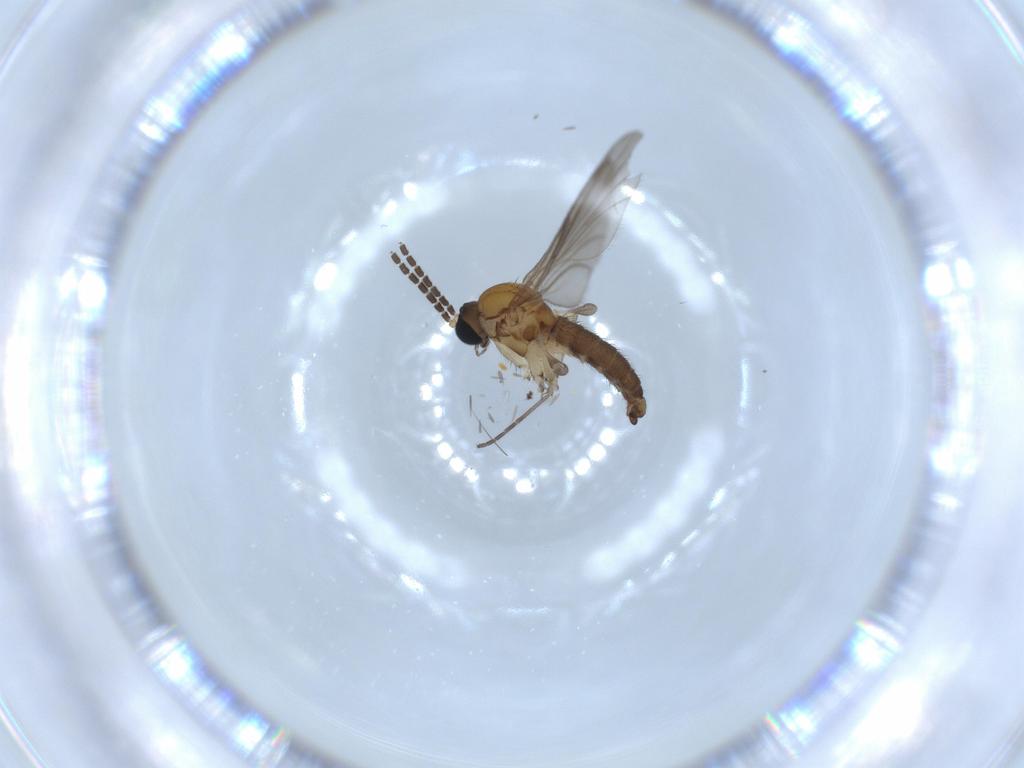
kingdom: Animalia
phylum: Arthropoda
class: Insecta
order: Diptera
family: Sciaridae
